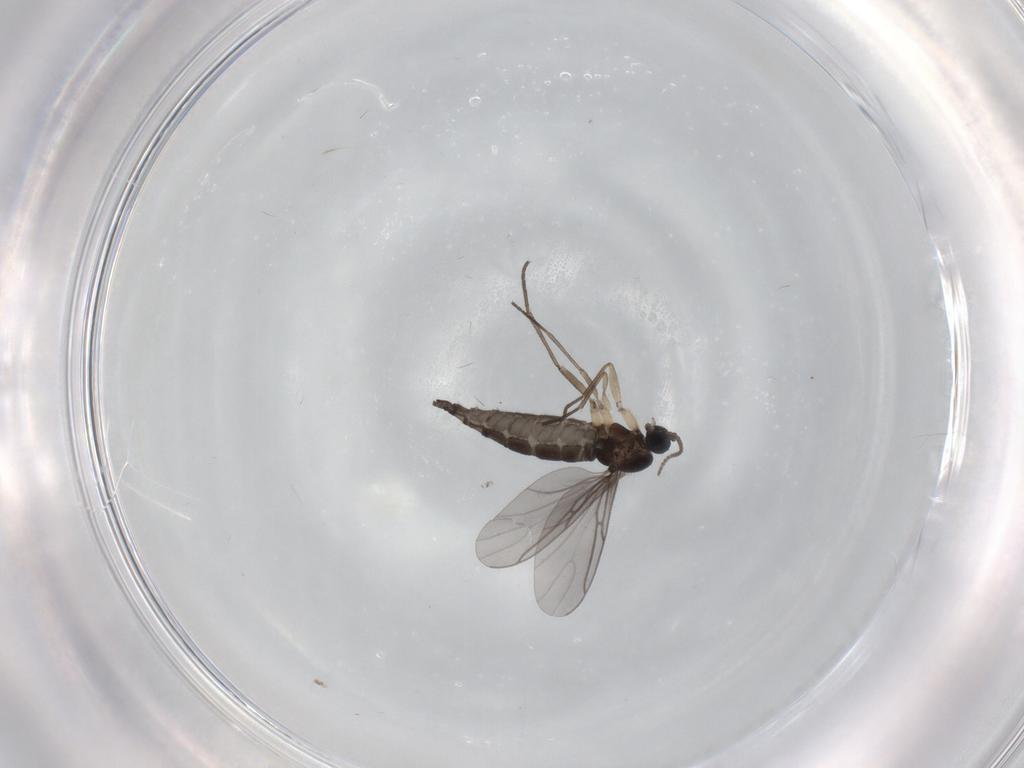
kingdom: Animalia
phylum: Arthropoda
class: Insecta
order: Diptera
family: Sciaridae
